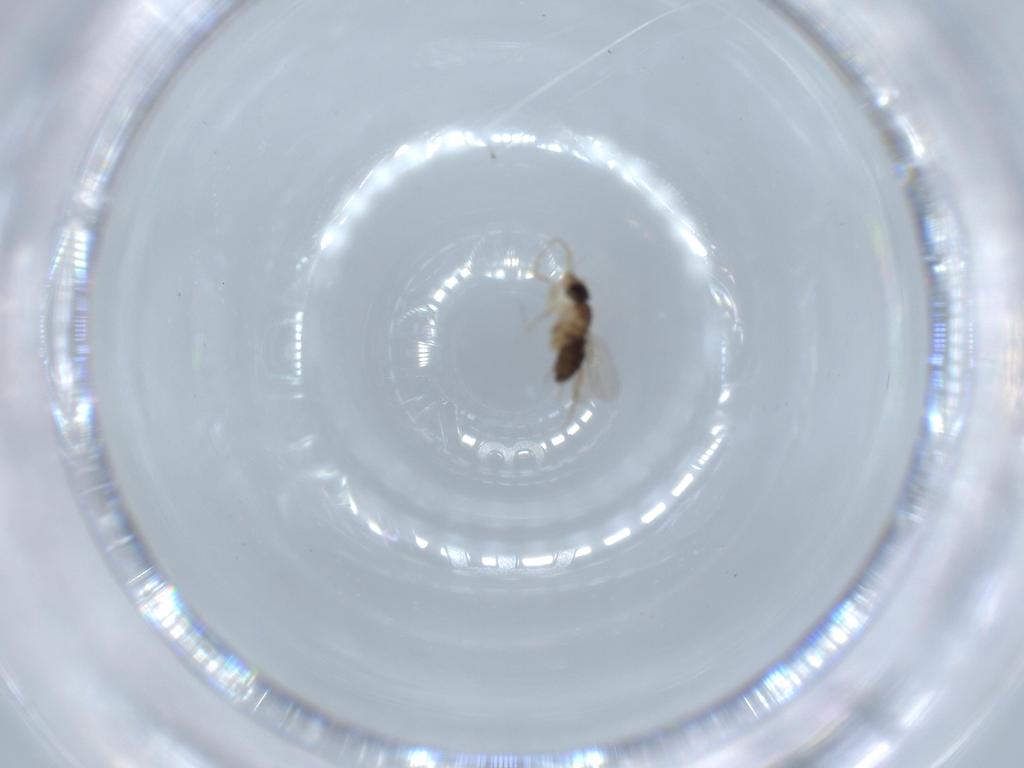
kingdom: Animalia
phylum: Arthropoda
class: Insecta
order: Diptera
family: Phoridae
